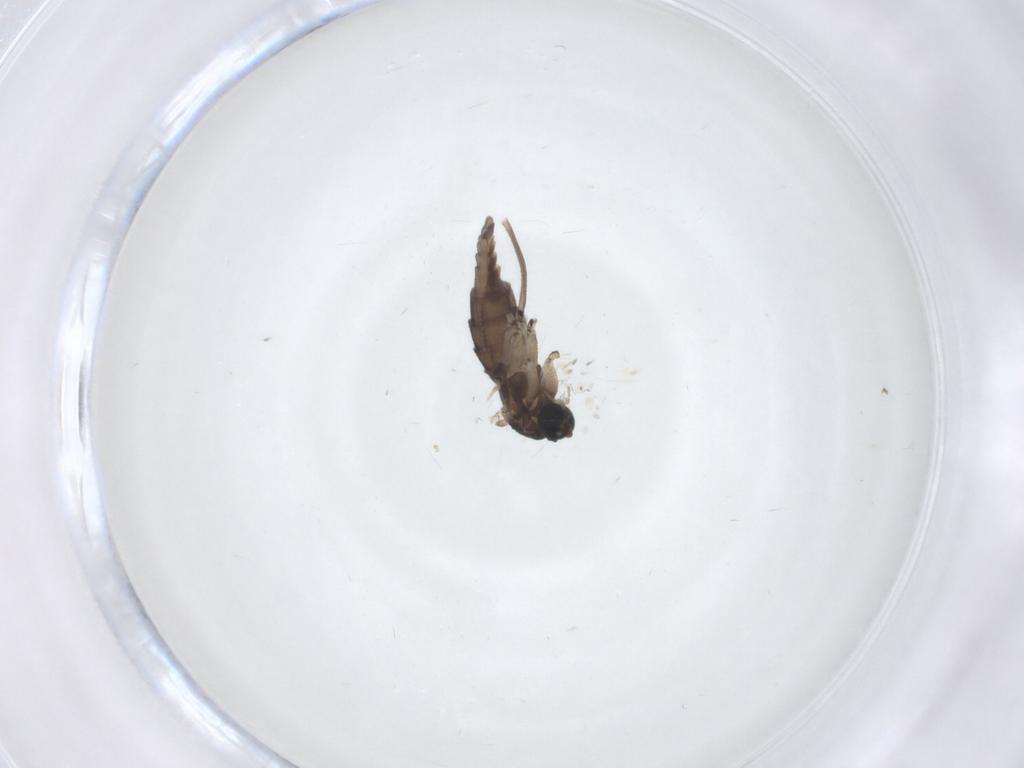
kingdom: Animalia
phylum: Arthropoda
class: Insecta
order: Diptera
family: Sciaridae
